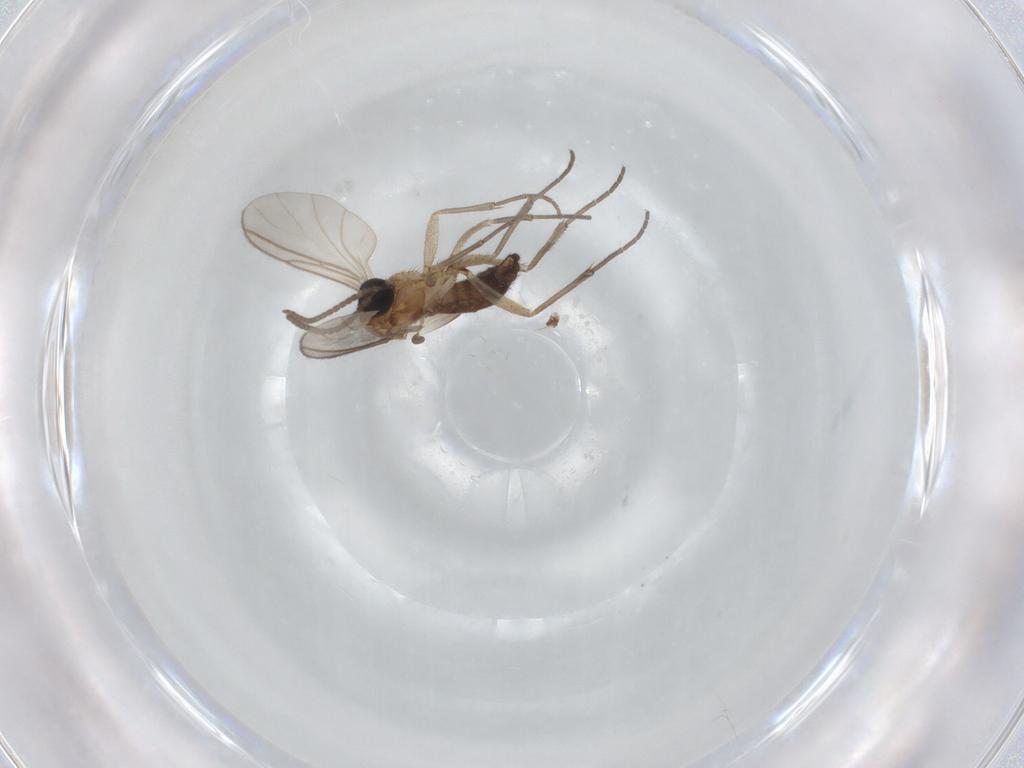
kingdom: Animalia
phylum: Arthropoda
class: Insecta
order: Diptera
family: Sciaridae
